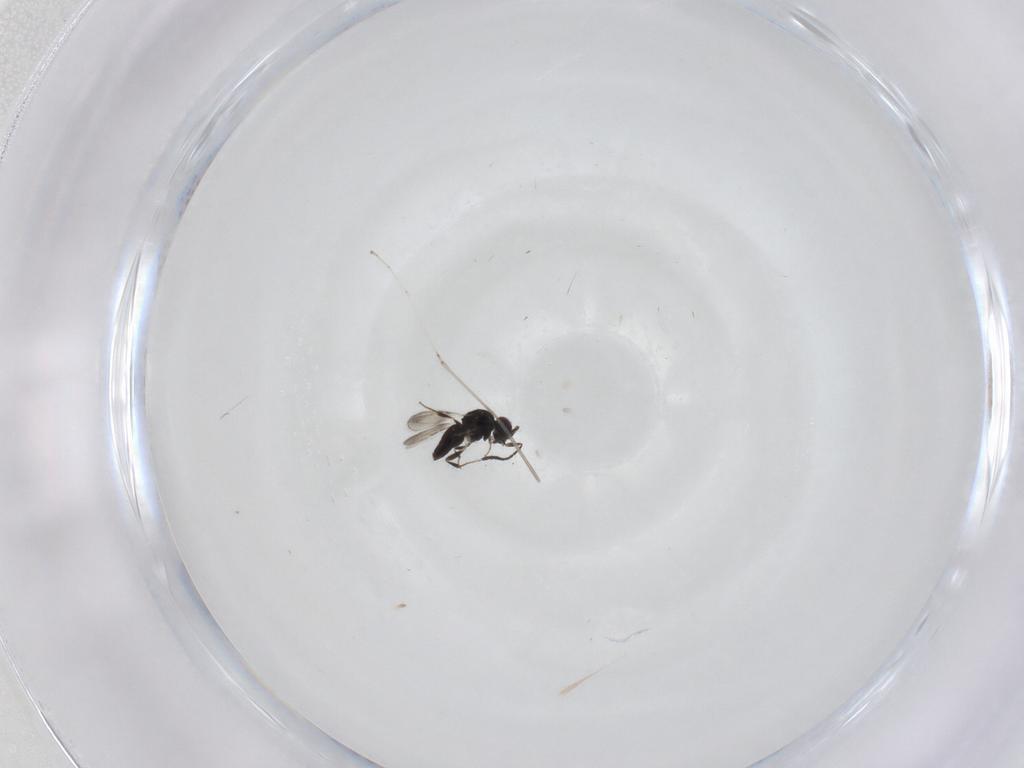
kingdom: Animalia
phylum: Arthropoda
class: Insecta
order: Hymenoptera
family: Ceraphronidae
